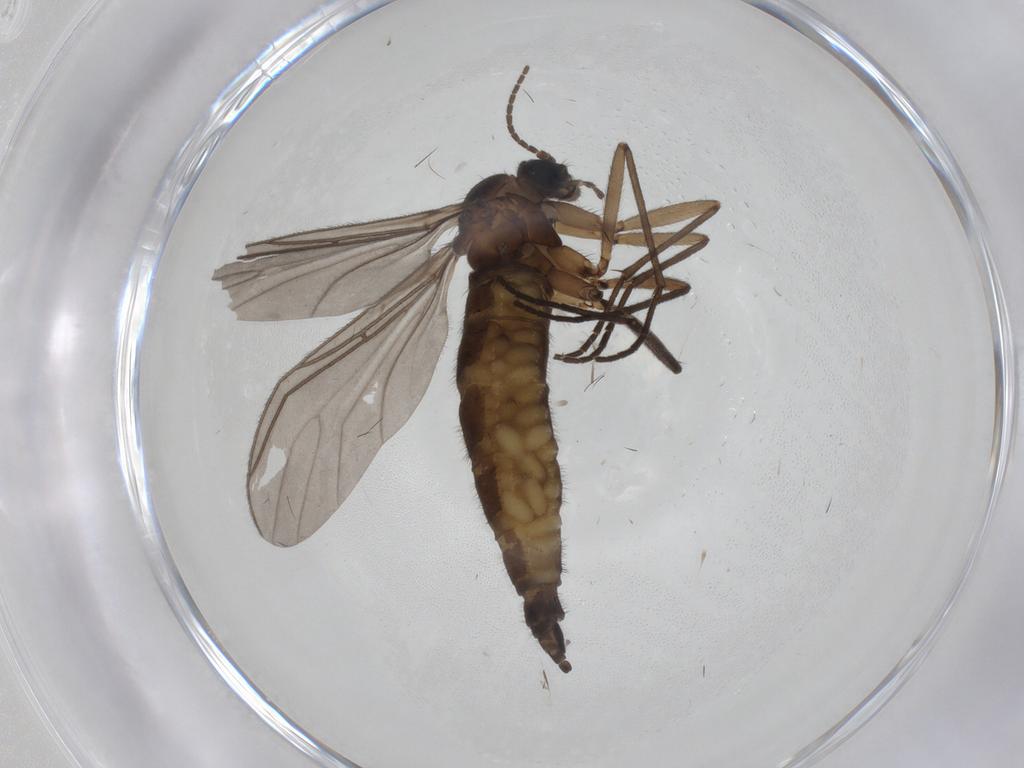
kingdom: Animalia
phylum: Arthropoda
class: Insecta
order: Diptera
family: Sciaridae
